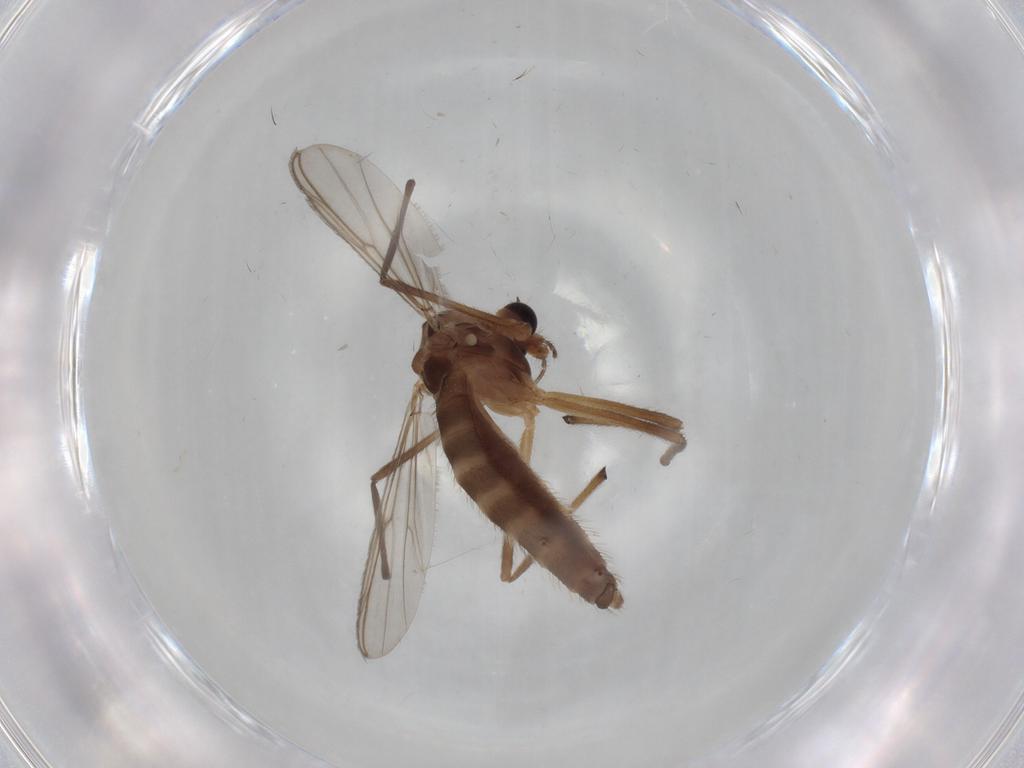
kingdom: Animalia
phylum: Arthropoda
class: Insecta
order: Diptera
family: Chironomidae
